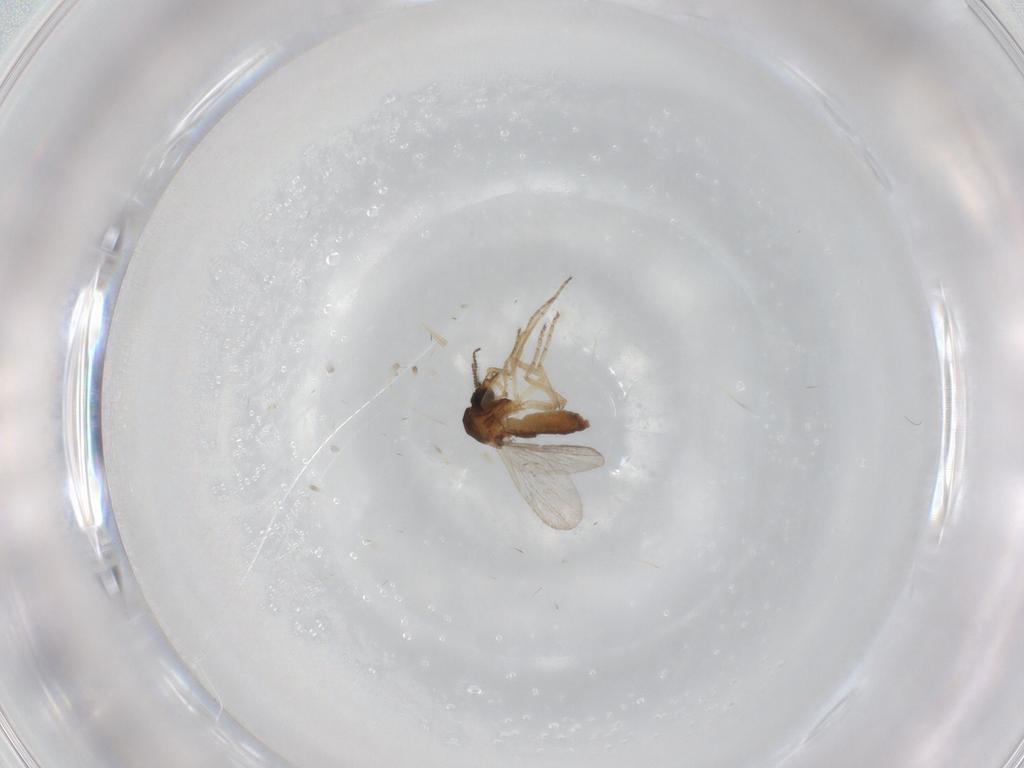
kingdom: Animalia
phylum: Arthropoda
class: Insecta
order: Diptera
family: Ceratopogonidae
